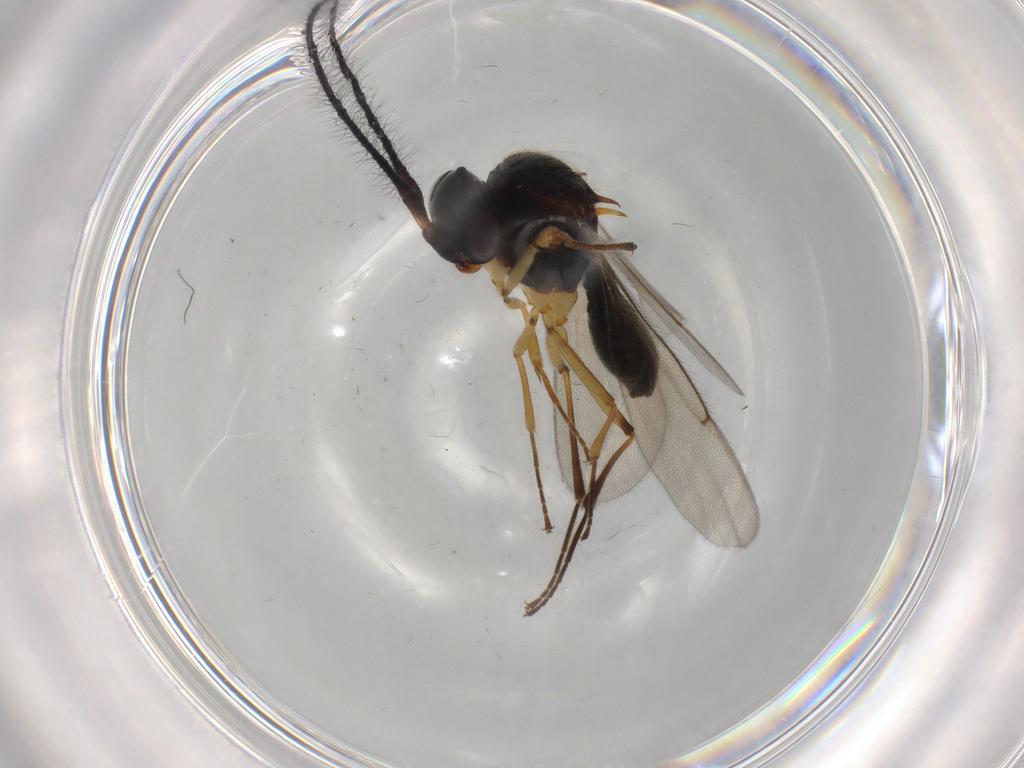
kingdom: Animalia
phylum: Arthropoda
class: Insecta
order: Hymenoptera
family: Scelionidae
